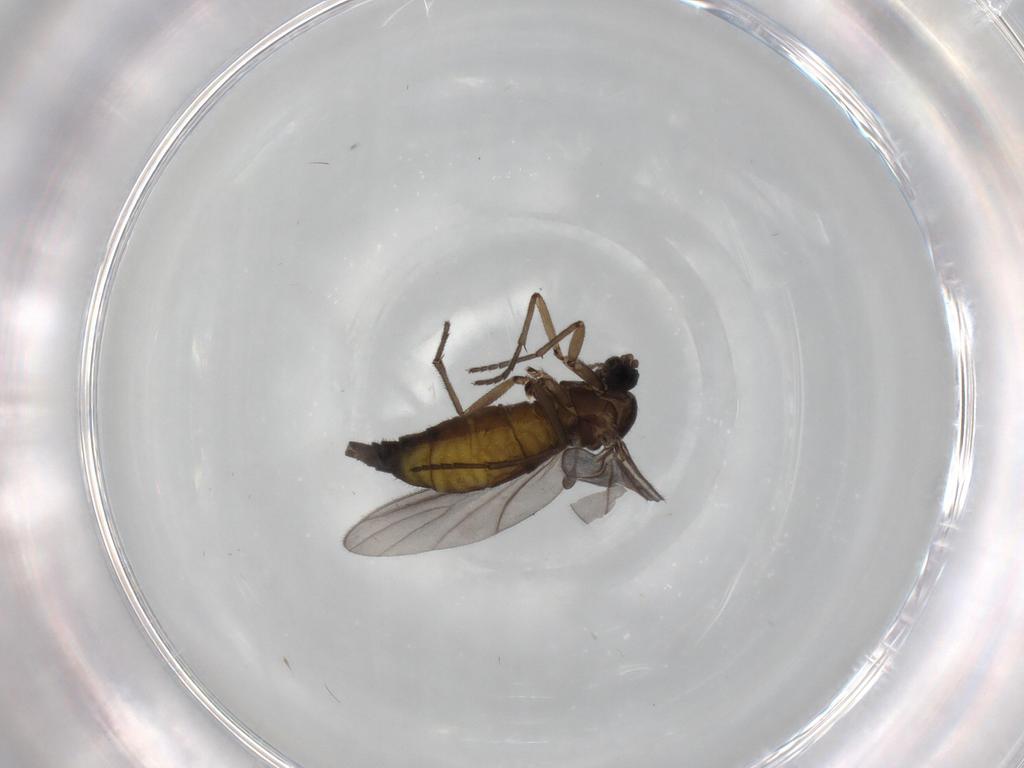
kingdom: Animalia
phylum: Arthropoda
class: Insecta
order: Diptera
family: Sciaridae
